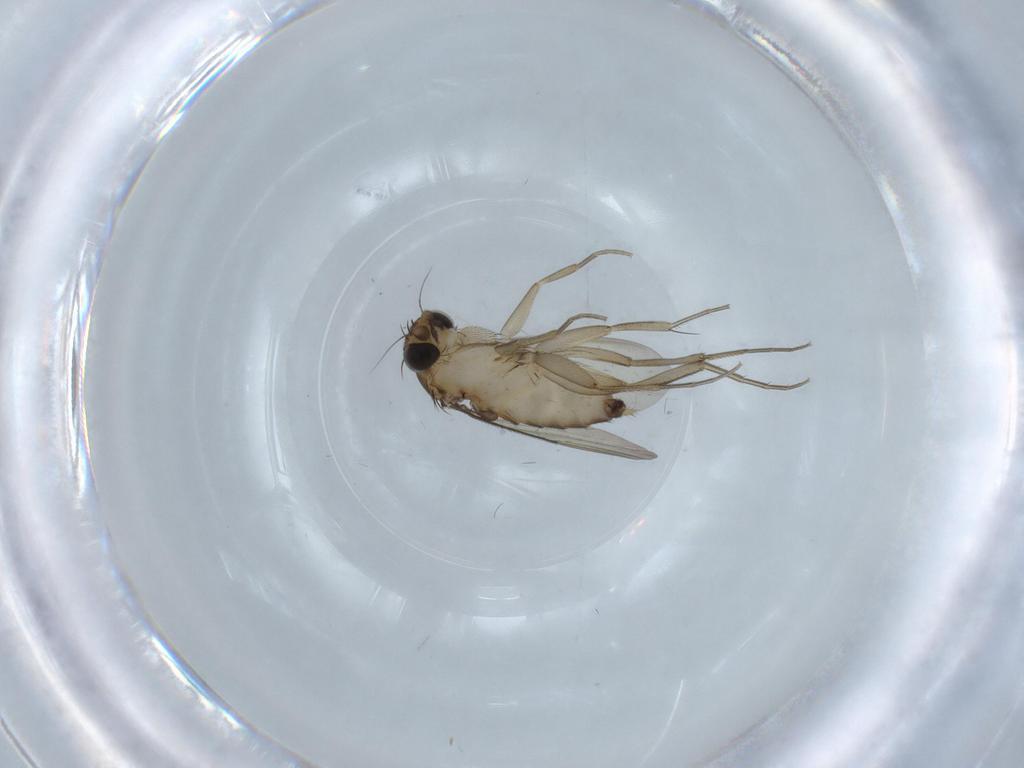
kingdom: Animalia
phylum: Arthropoda
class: Insecta
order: Diptera
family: Phoridae
